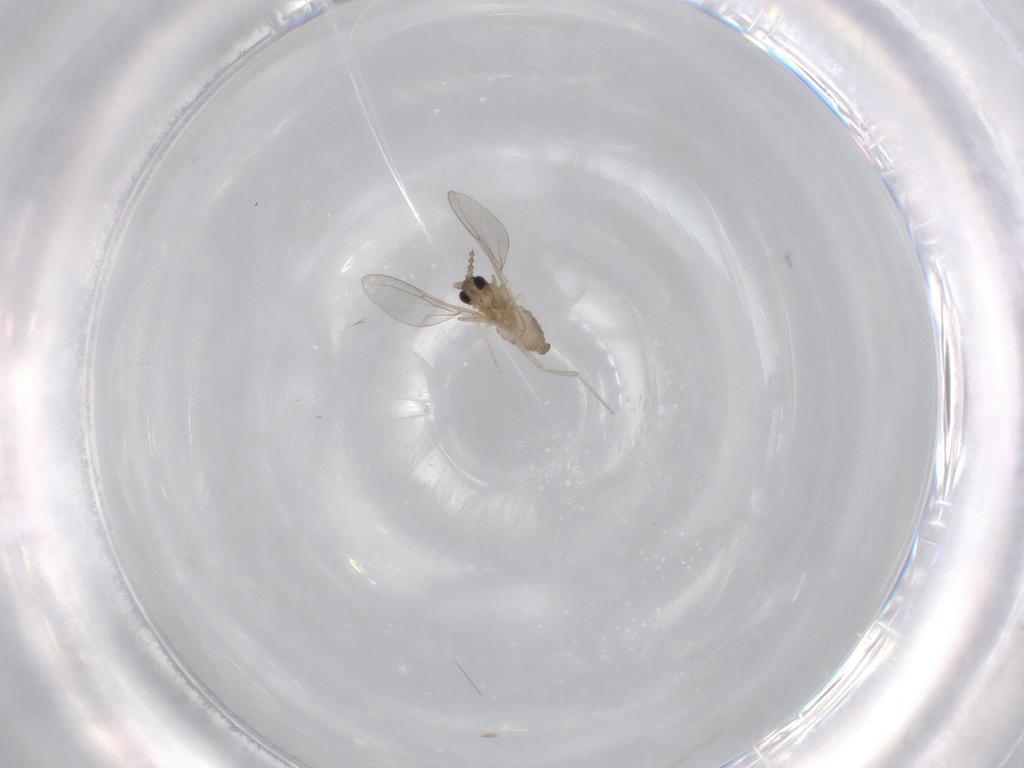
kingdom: Animalia
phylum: Arthropoda
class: Insecta
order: Diptera
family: Cecidomyiidae
